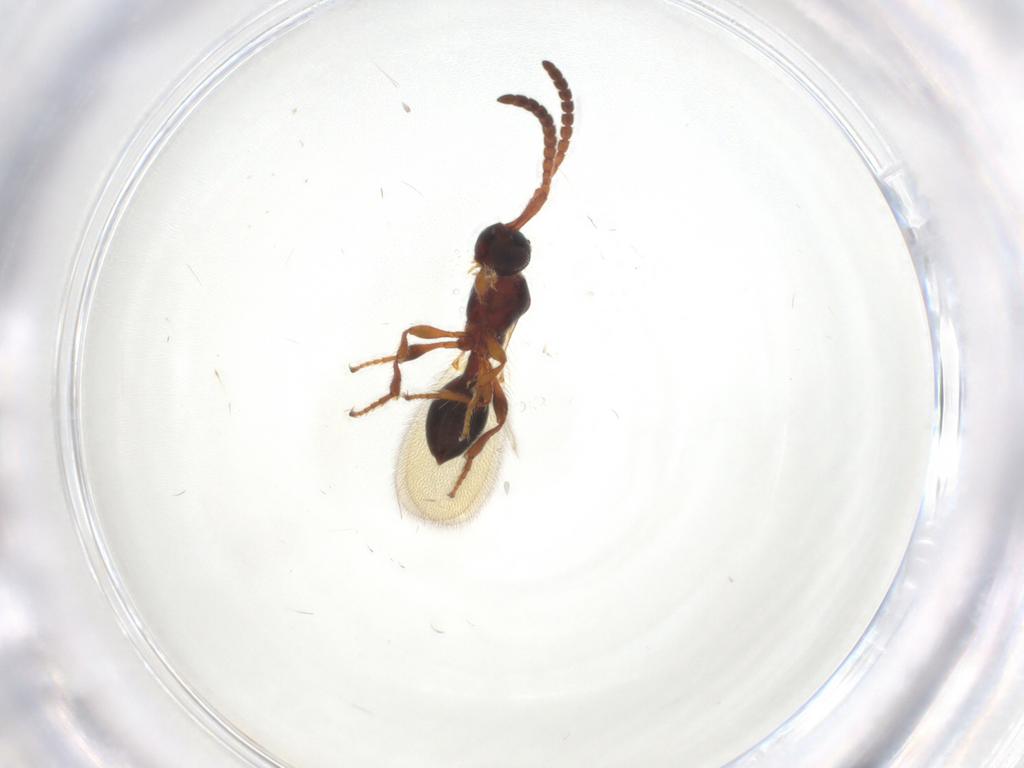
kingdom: Animalia
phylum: Arthropoda
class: Insecta
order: Hymenoptera
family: Diapriidae
